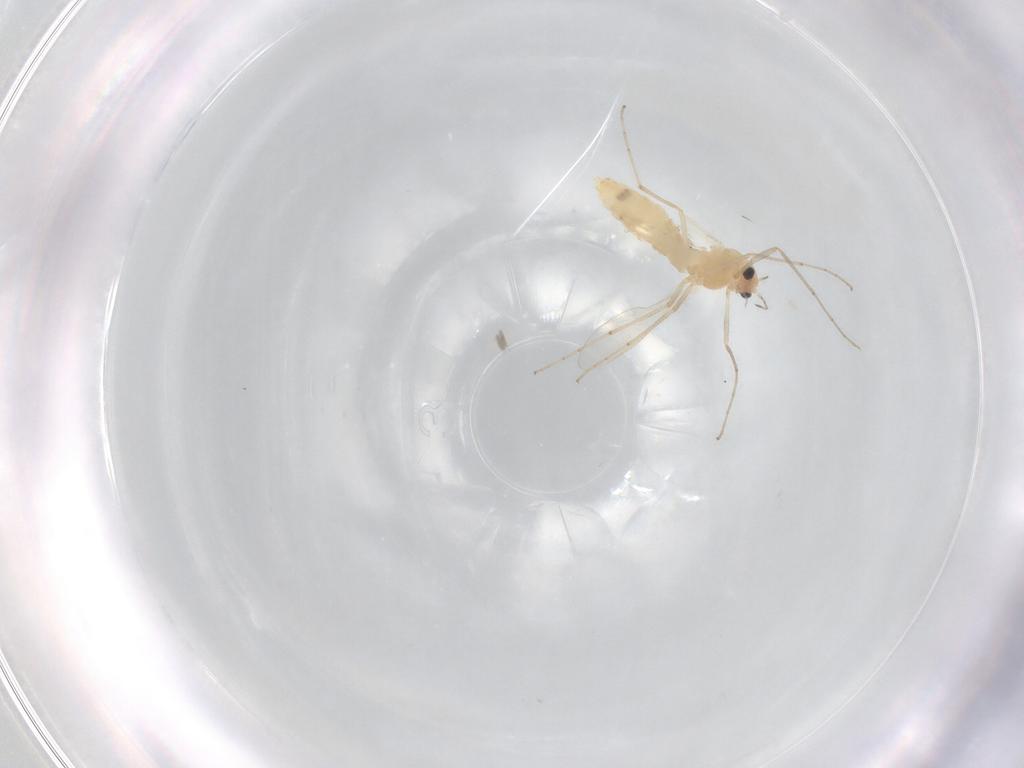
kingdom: Animalia
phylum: Arthropoda
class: Insecta
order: Diptera
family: Chironomidae
